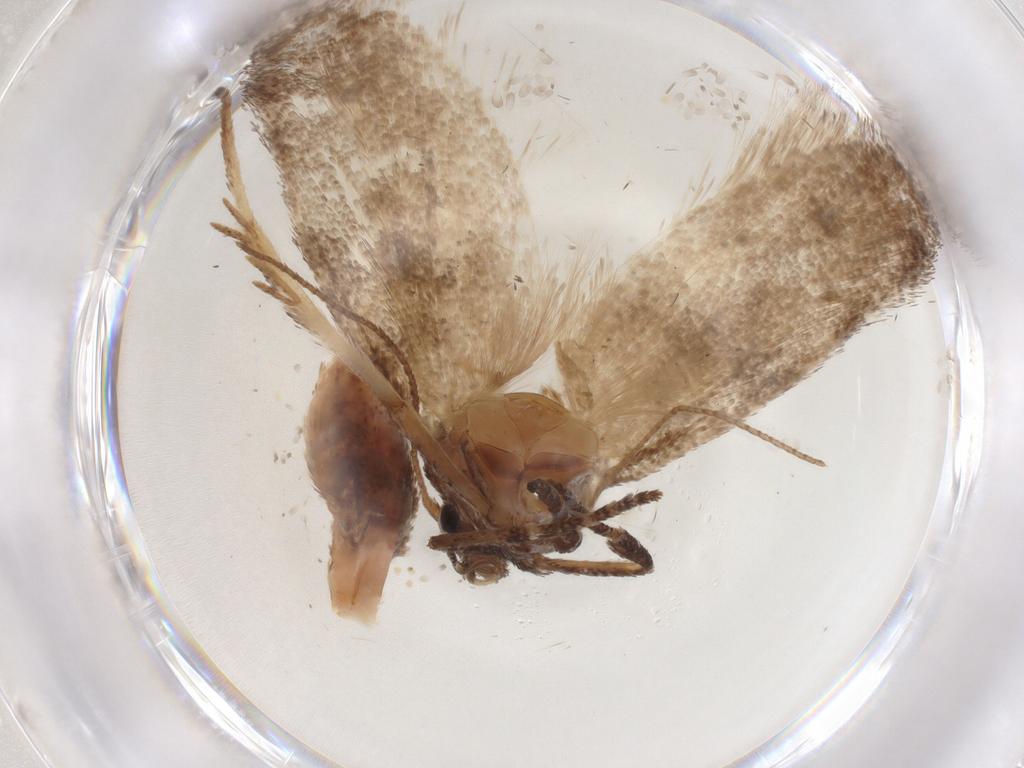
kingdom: Animalia
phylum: Arthropoda
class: Insecta
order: Lepidoptera
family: Cosmopterigidae
